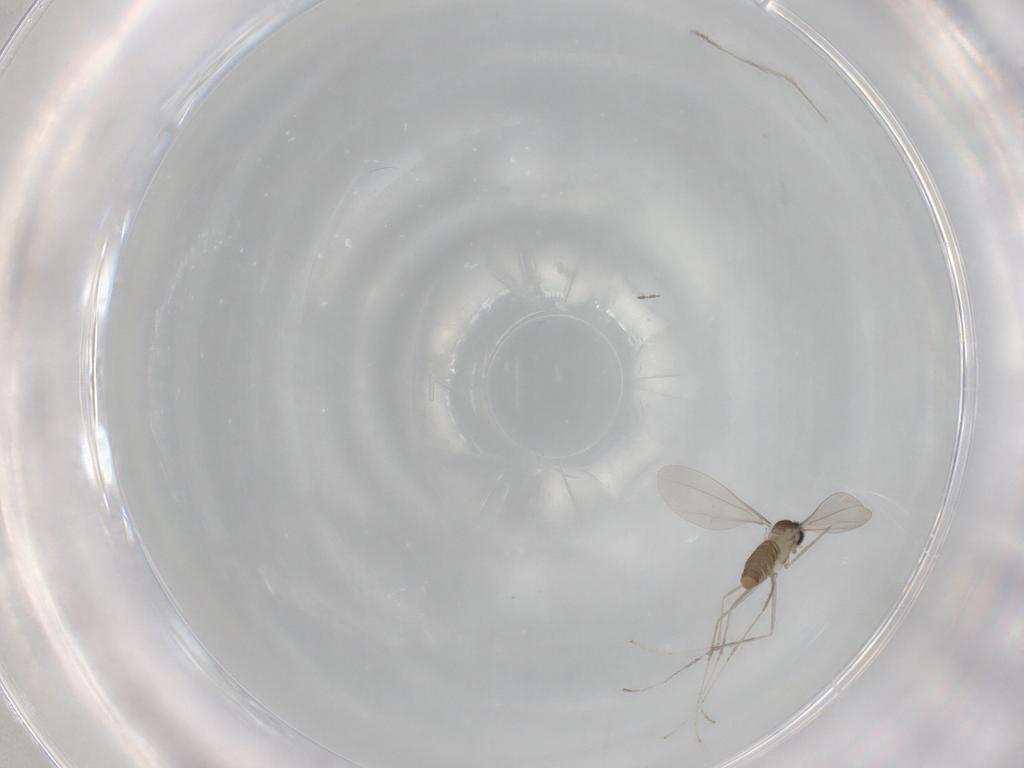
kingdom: Animalia
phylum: Arthropoda
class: Insecta
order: Diptera
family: Cecidomyiidae
